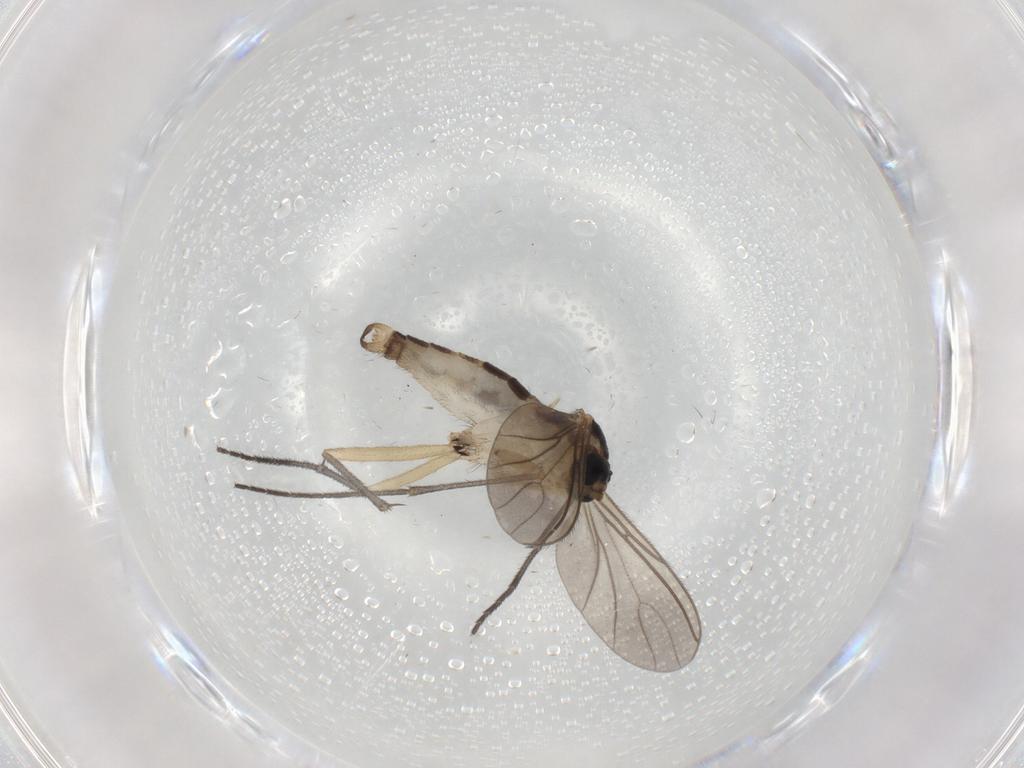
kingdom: Animalia
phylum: Arthropoda
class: Insecta
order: Diptera
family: Sciaridae
